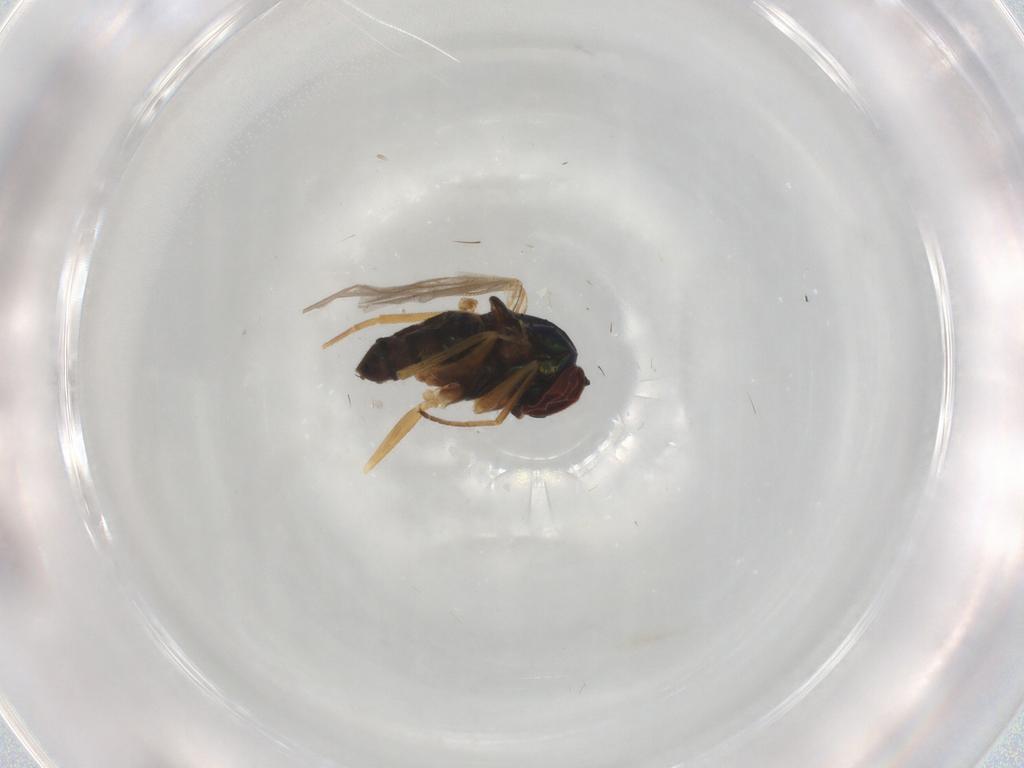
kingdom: Animalia
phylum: Arthropoda
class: Insecta
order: Diptera
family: Dolichopodidae
